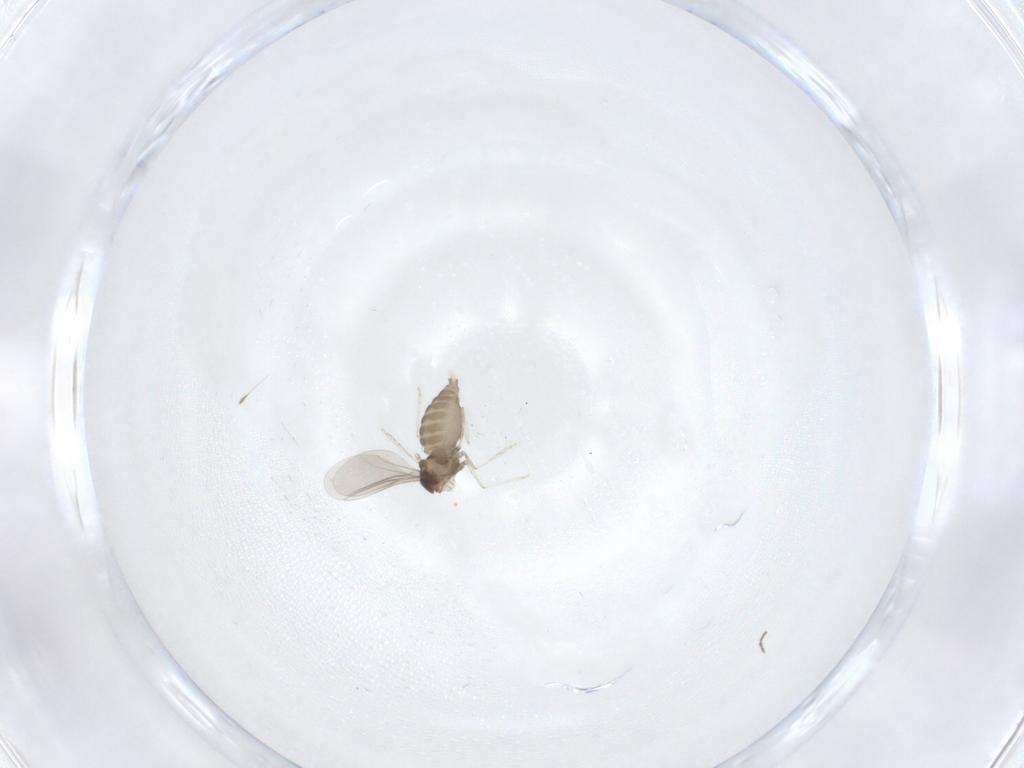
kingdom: Animalia
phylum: Arthropoda
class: Insecta
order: Diptera
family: Cecidomyiidae
